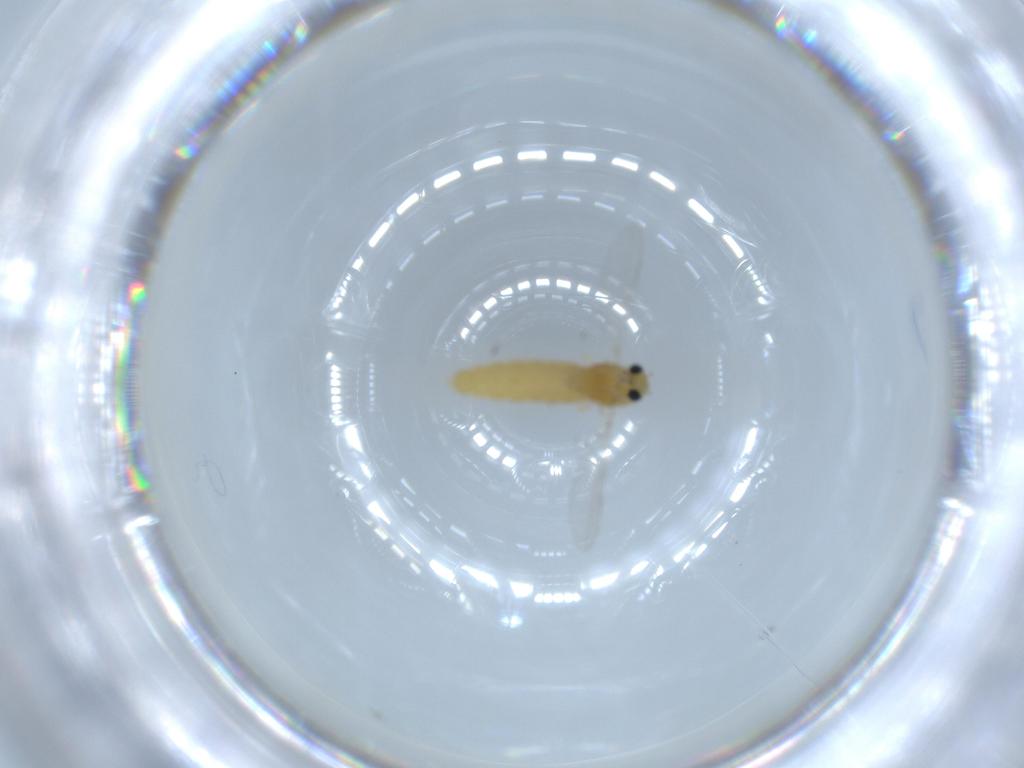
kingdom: Animalia
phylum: Arthropoda
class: Insecta
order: Diptera
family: Chironomidae
